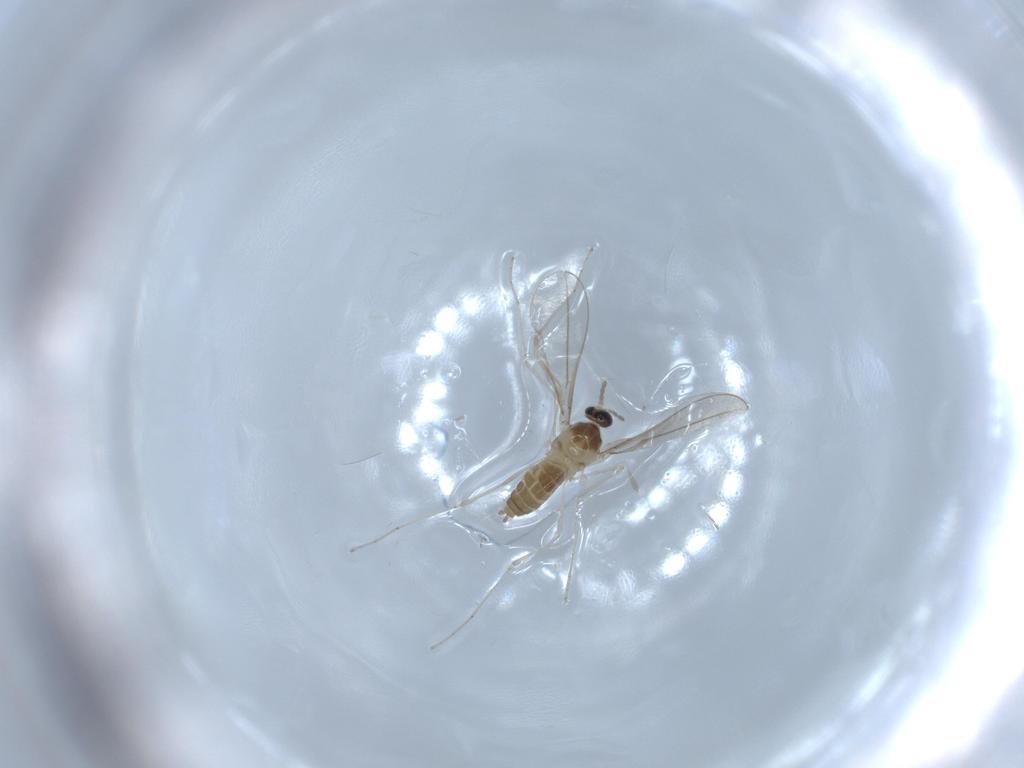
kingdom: Animalia
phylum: Arthropoda
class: Insecta
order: Diptera
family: Cecidomyiidae
